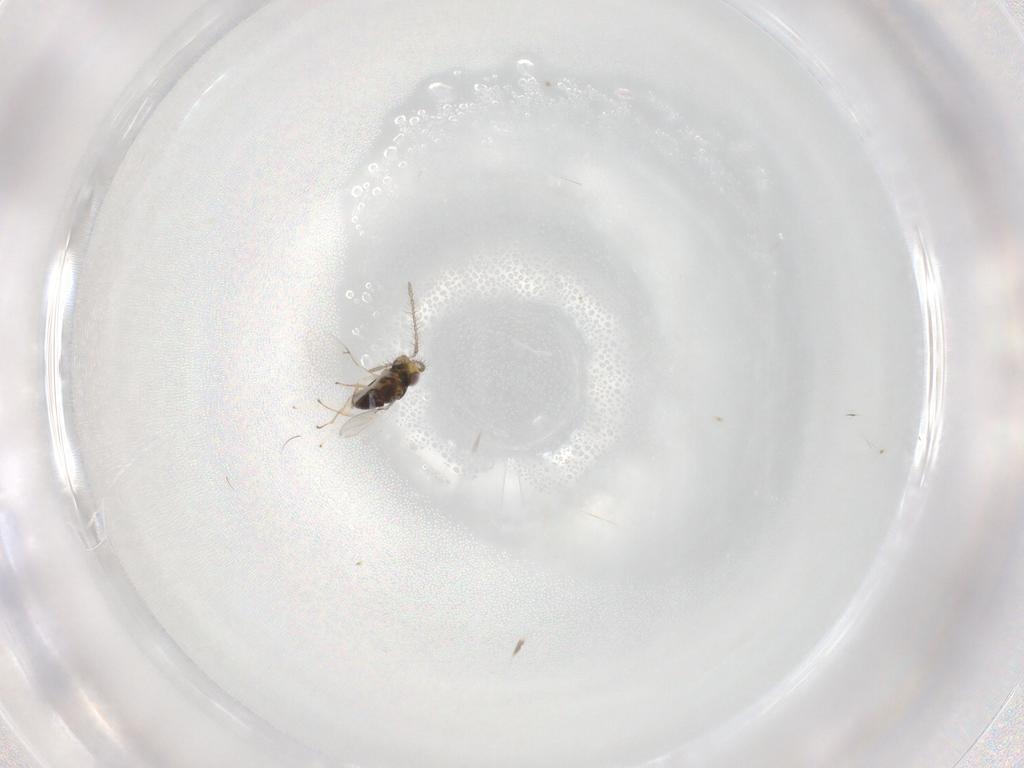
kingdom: Animalia
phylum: Arthropoda
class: Insecta
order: Hymenoptera
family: Encyrtidae
